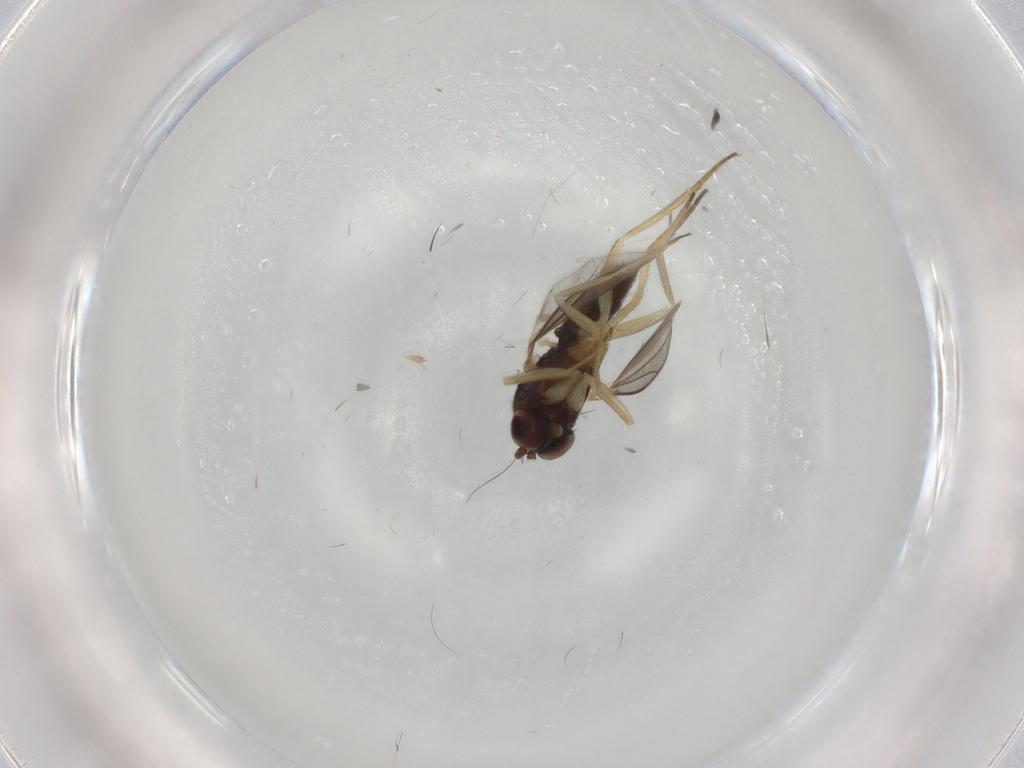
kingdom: Animalia
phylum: Arthropoda
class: Insecta
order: Diptera
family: Dolichopodidae
